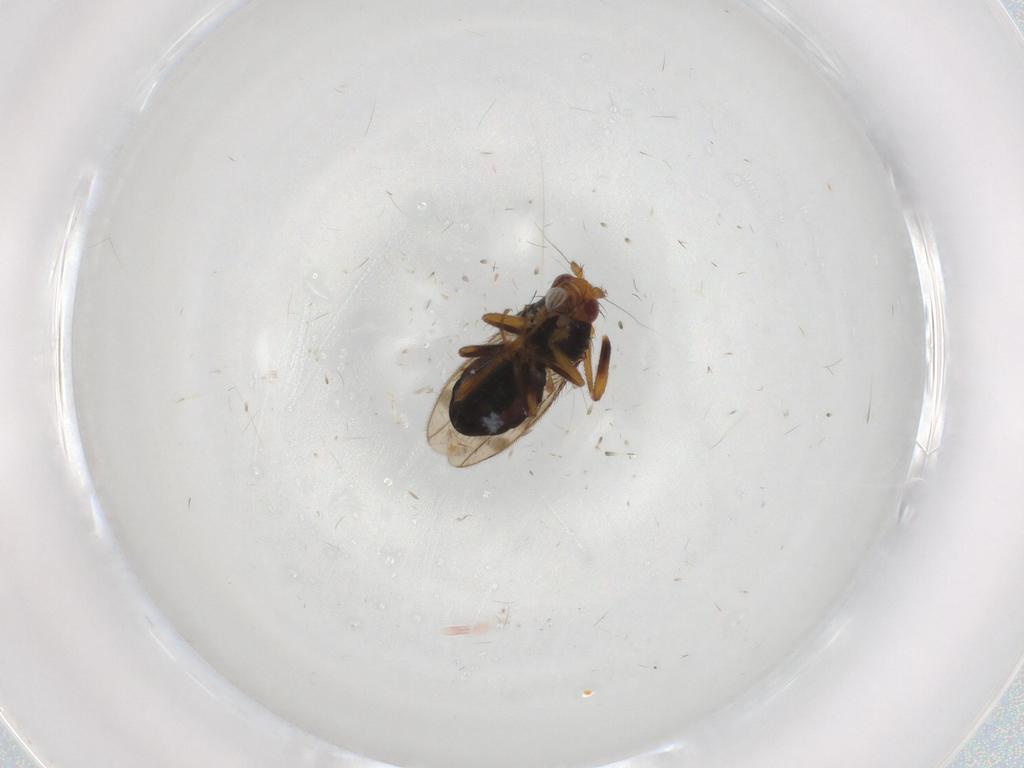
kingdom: Animalia
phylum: Arthropoda
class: Insecta
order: Diptera
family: Sphaeroceridae
